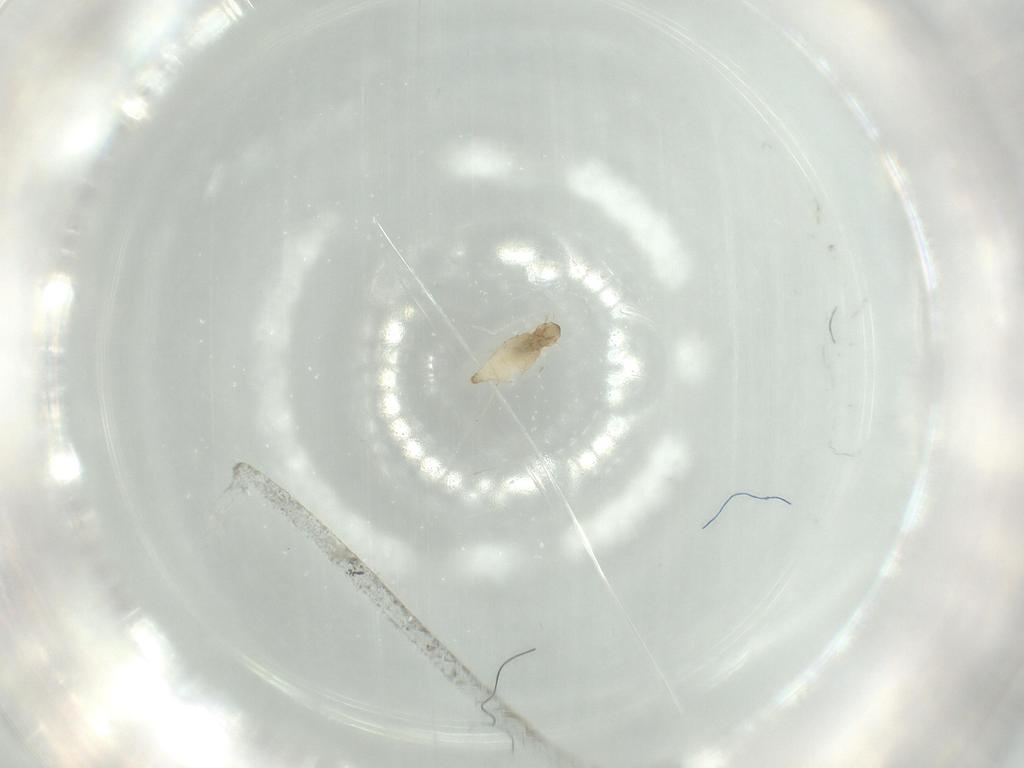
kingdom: Animalia
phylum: Arthropoda
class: Insecta
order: Diptera
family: Cecidomyiidae
